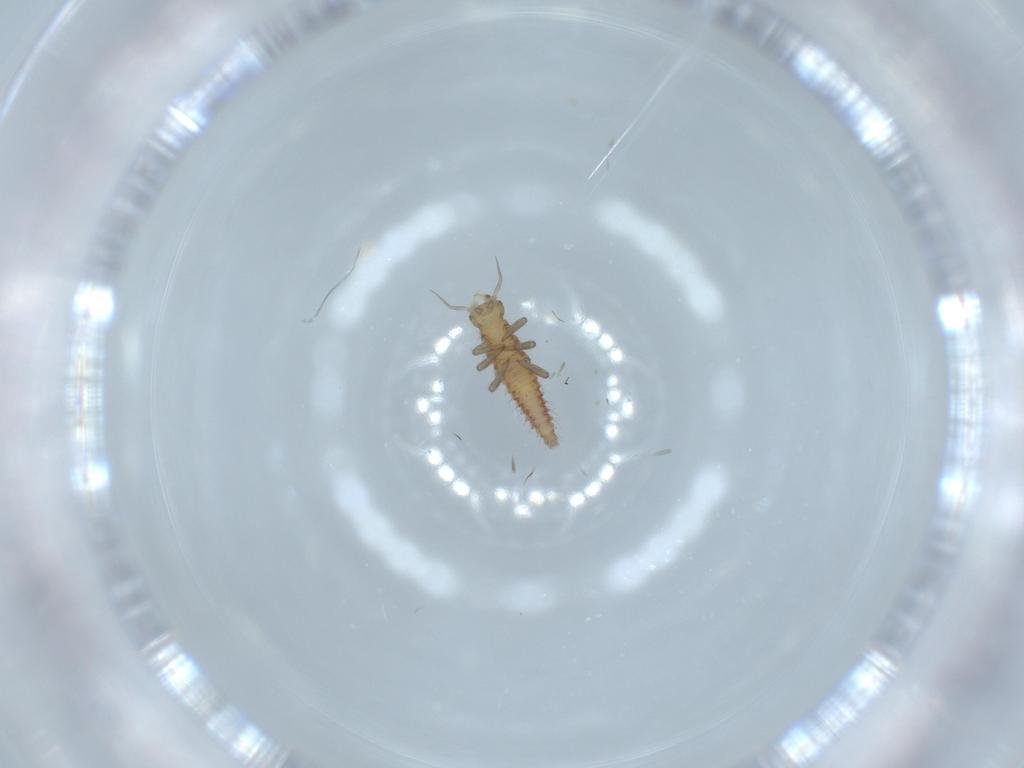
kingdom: Animalia
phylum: Arthropoda
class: Insecta
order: Neuroptera
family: Hemerobiidae
